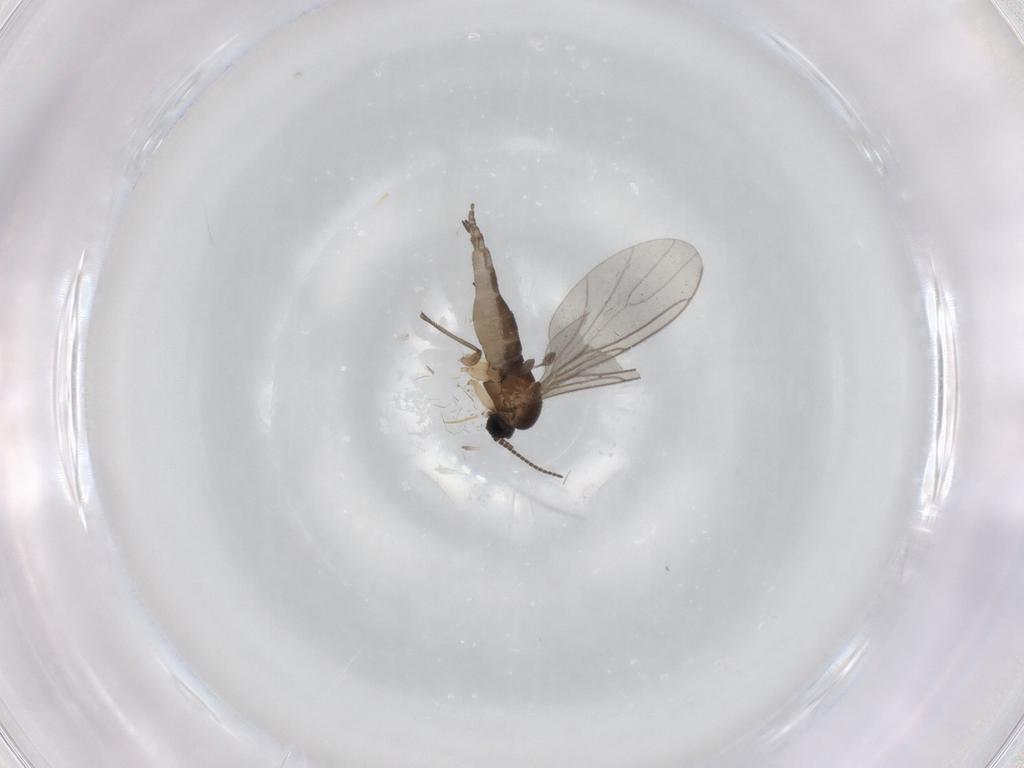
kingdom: Animalia
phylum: Arthropoda
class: Insecta
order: Diptera
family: Sciaridae
